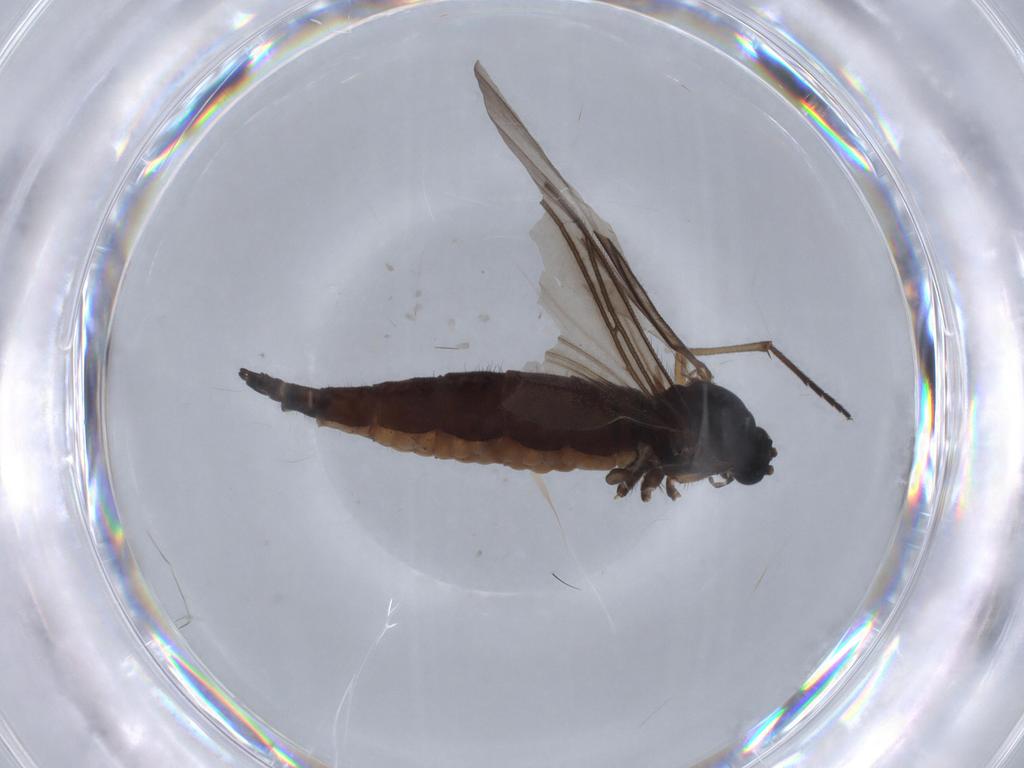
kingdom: Animalia
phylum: Arthropoda
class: Insecta
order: Diptera
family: Sciaridae
